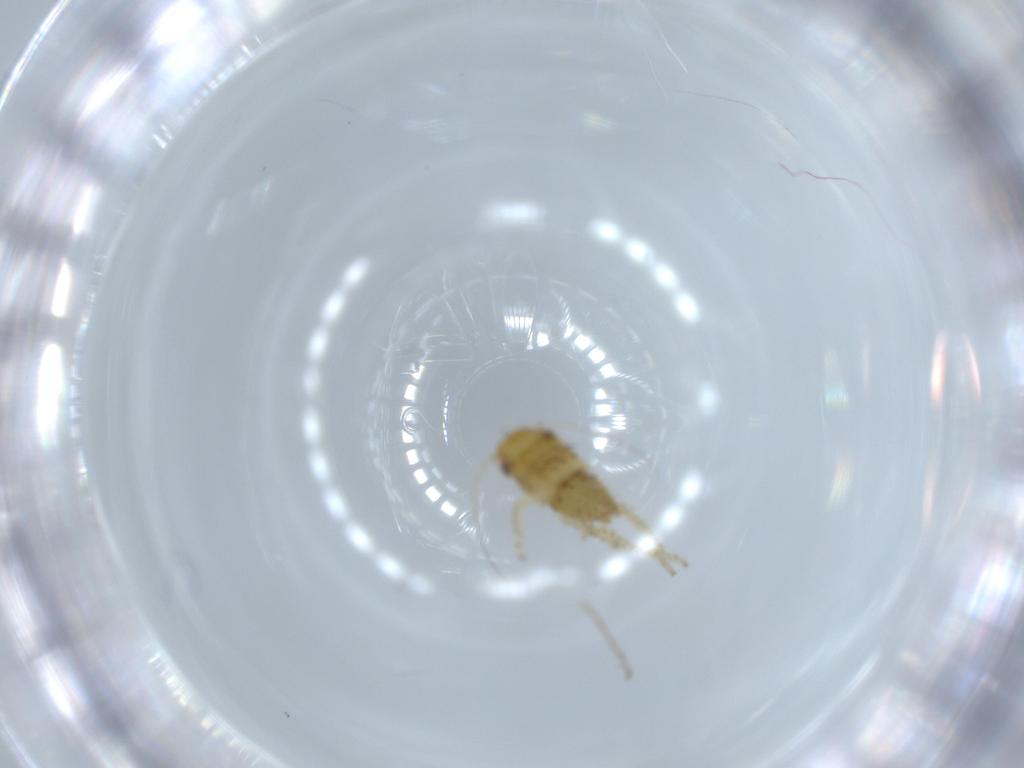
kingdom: Animalia
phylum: Arthropoda
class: Insecta
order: Hemiptera
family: Cicadellidae
